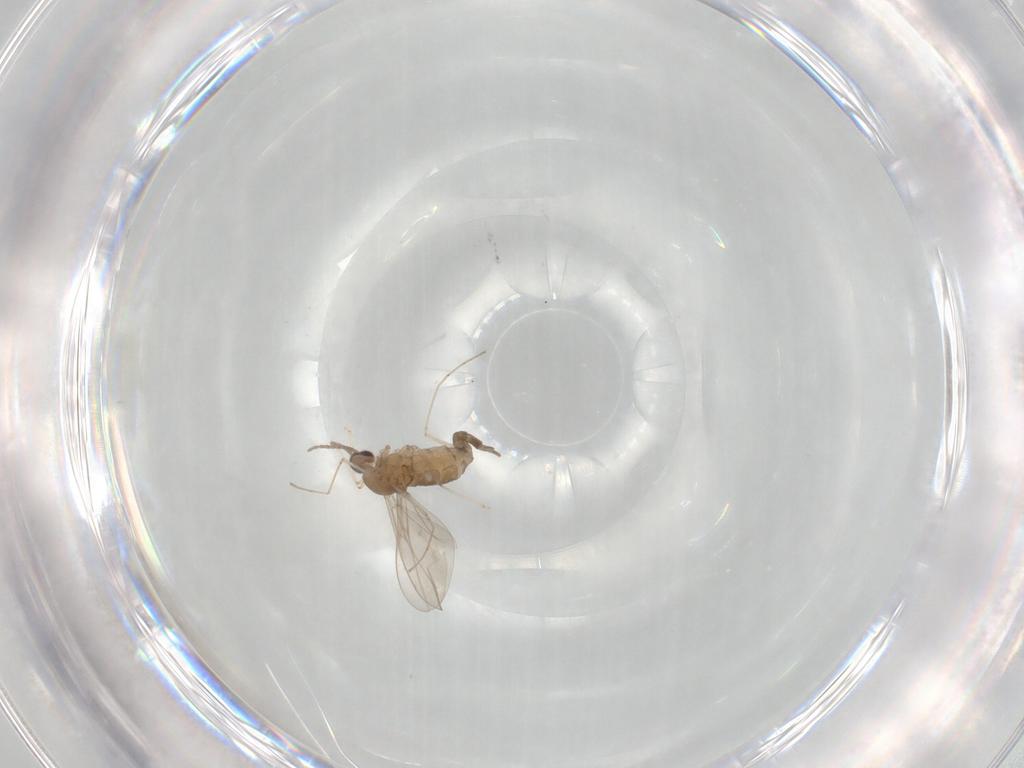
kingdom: Animalia
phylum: Arthropoda
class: Insecta
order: Diptera
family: Cecidomyiidae
